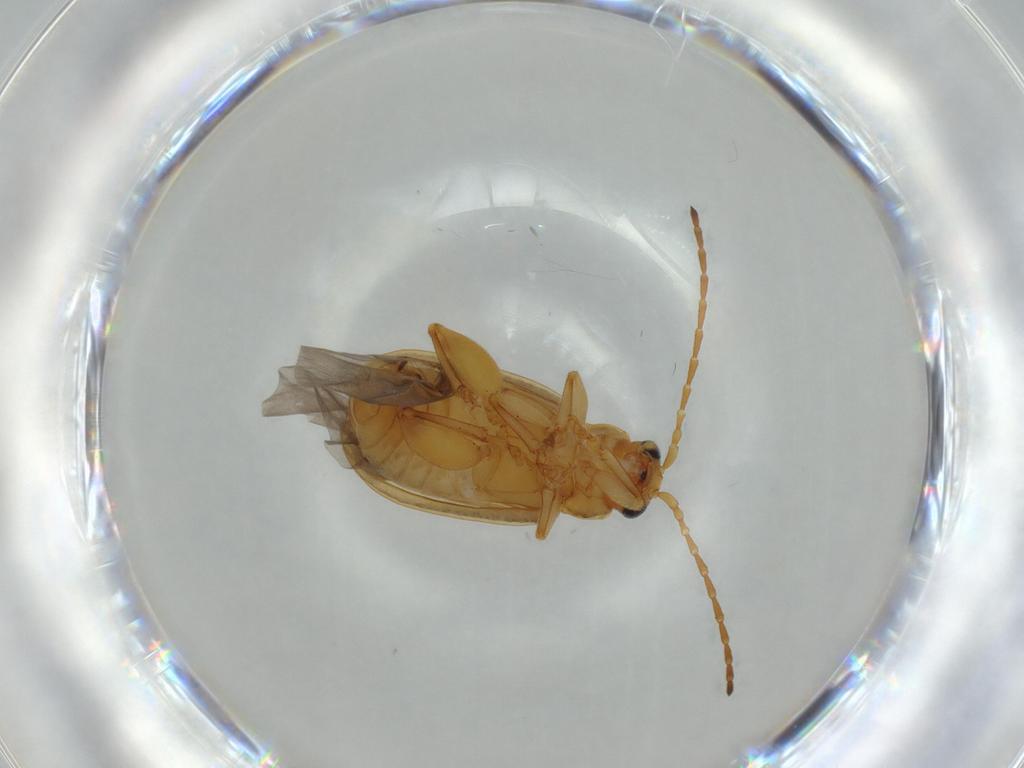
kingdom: Animalia
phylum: Arthropoda
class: Insecta
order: Coleoptera
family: Chrysomelidae
